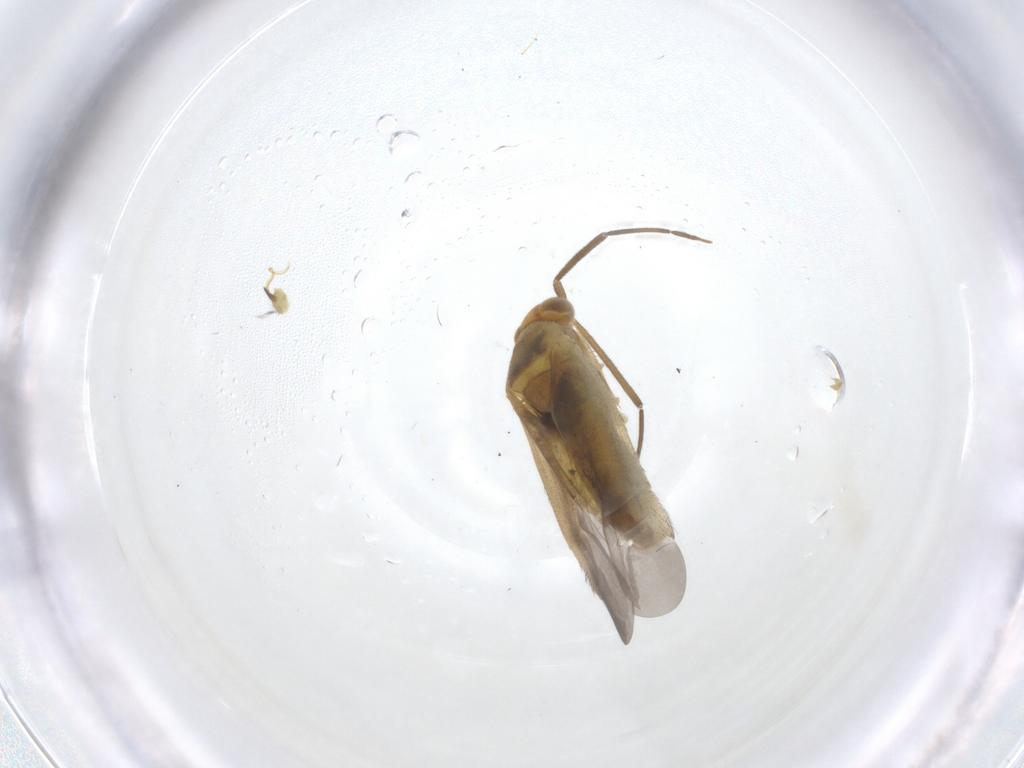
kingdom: Animalia
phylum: Arthropoda
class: Insecta
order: Hemiptera
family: Miridae
